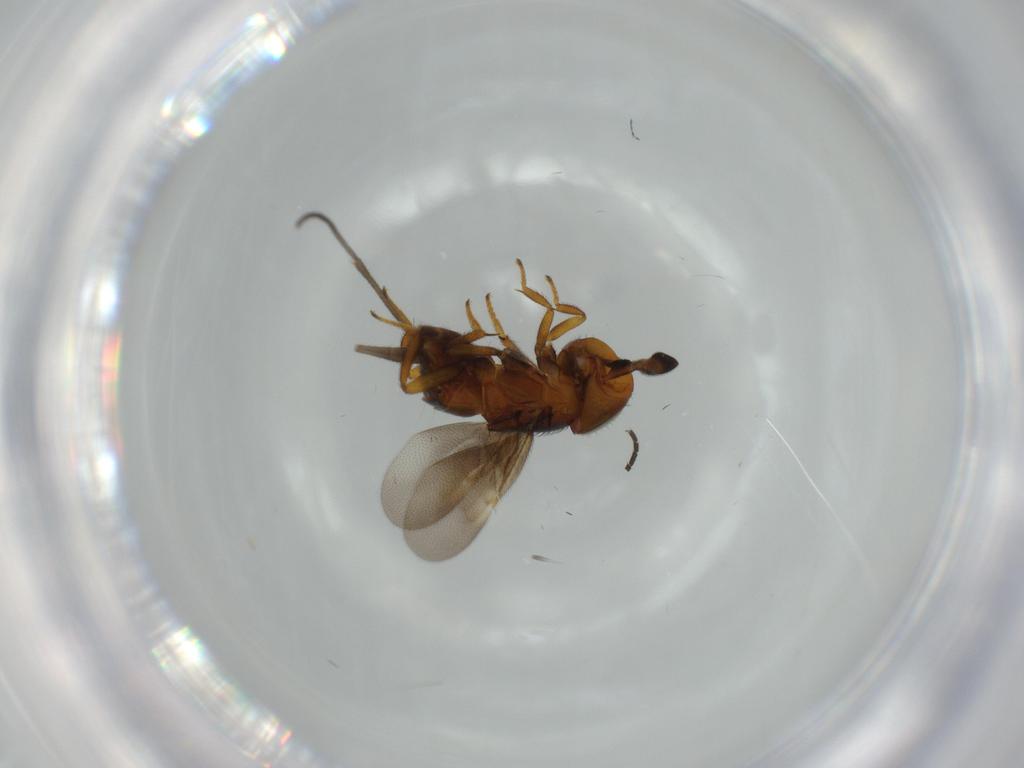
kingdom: Animalia
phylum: Arthropoda
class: Insecta
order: Hymenoptera
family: Encyrtidae
